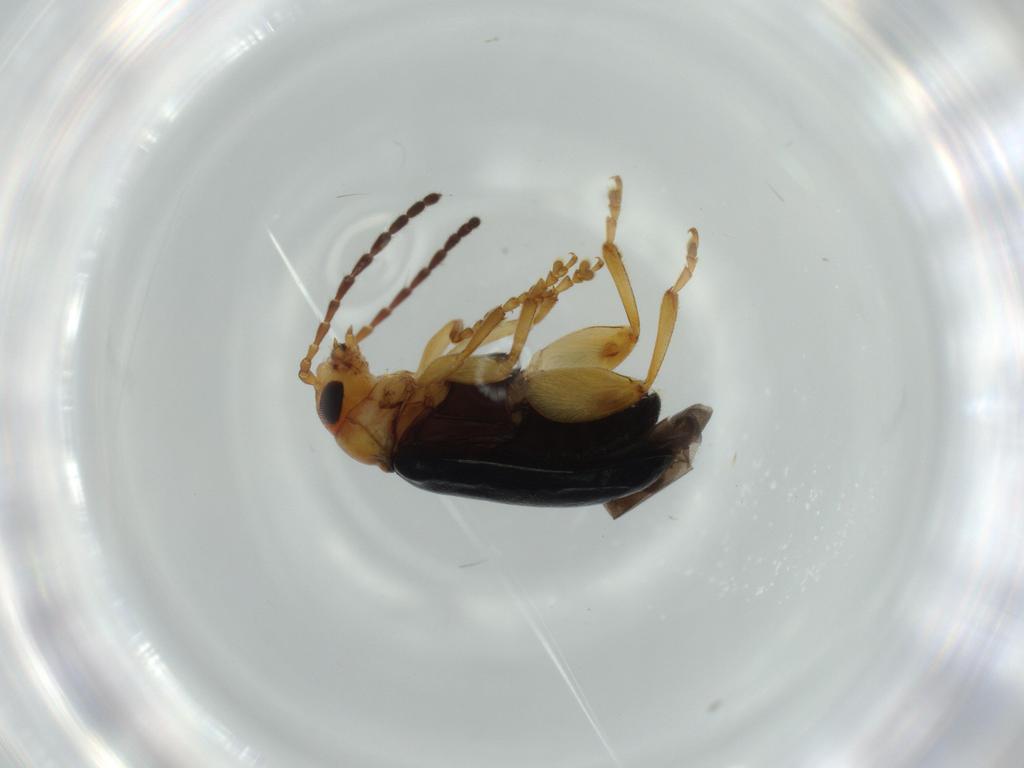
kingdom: Animalia
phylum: Arthropoda
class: Insecta
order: Coleoptera
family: Chrysomelidae
